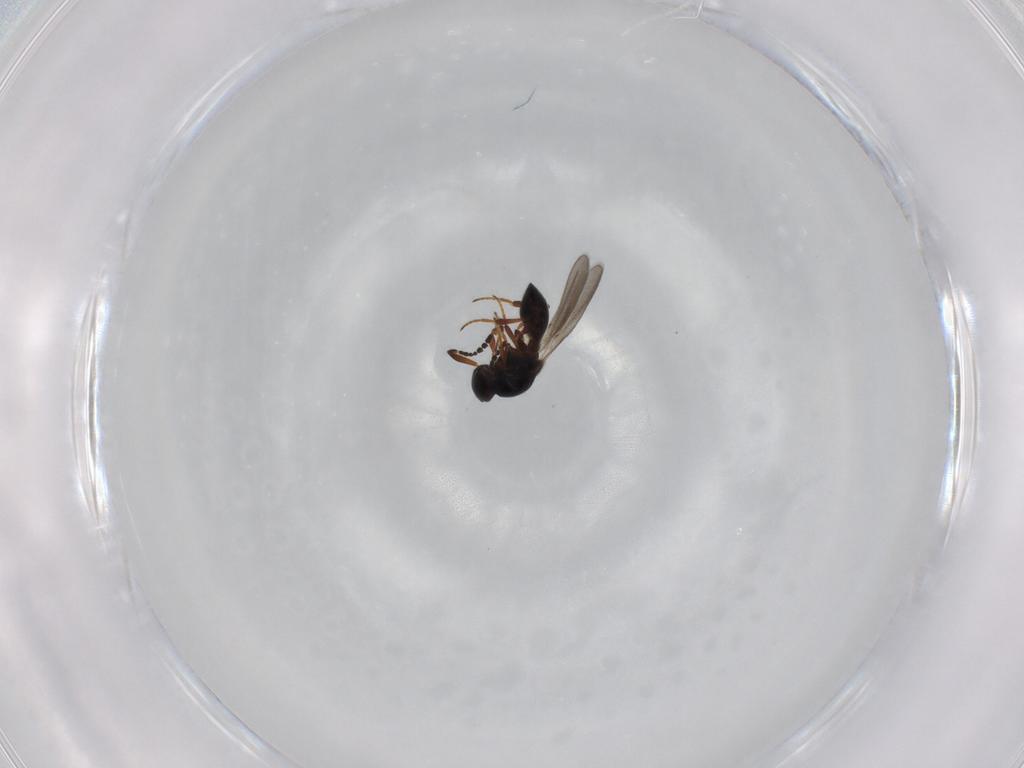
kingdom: Animalia
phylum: Arthropoda
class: Insecta
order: Hymenoptera
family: Platygastridae
